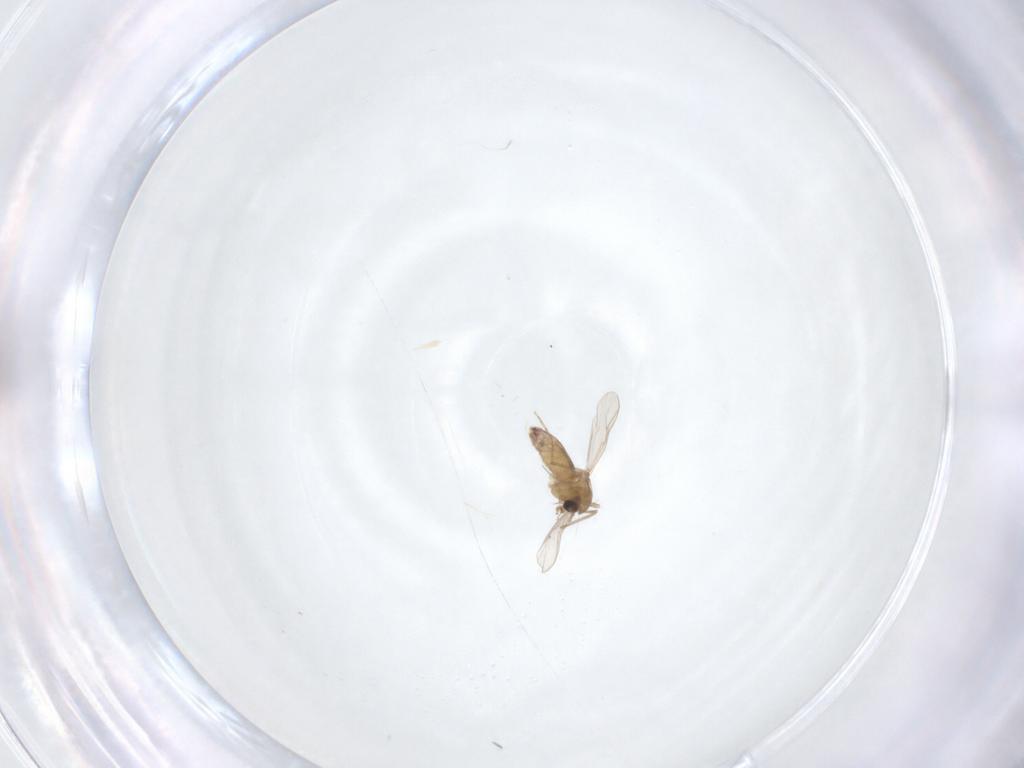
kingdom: Animalia
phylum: Arthropoda
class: Insecta
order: Diptera
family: Chironomidae
